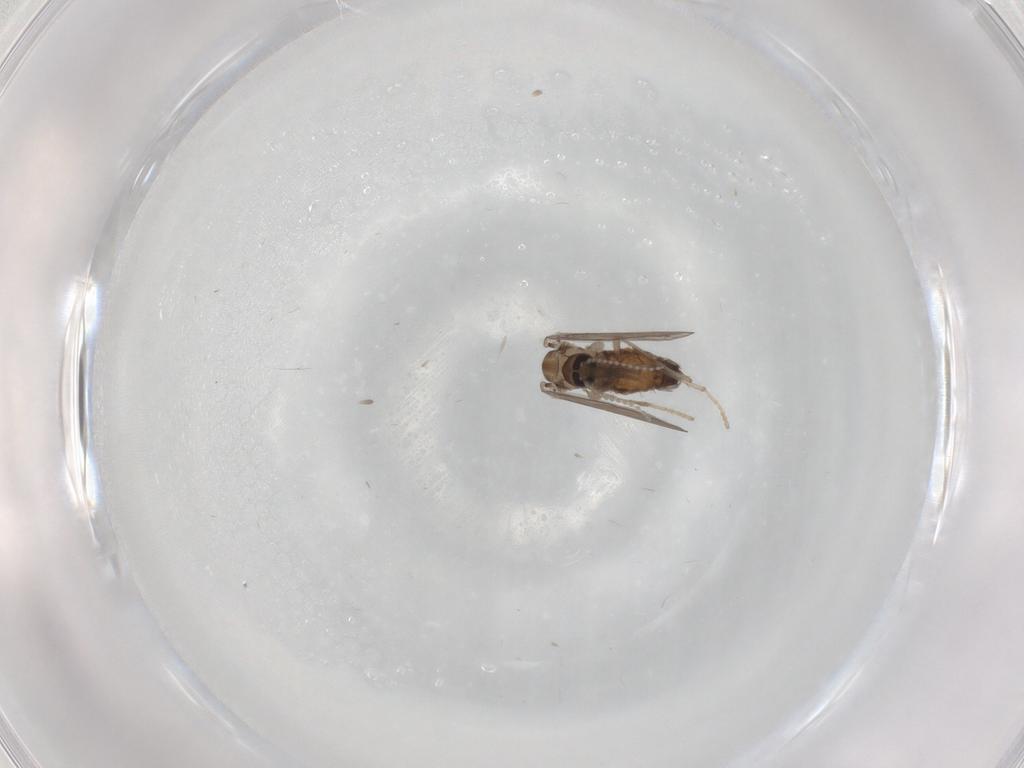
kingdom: Animalia
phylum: Arthropoda
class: Insecta
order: Diptera
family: Psychodidae
